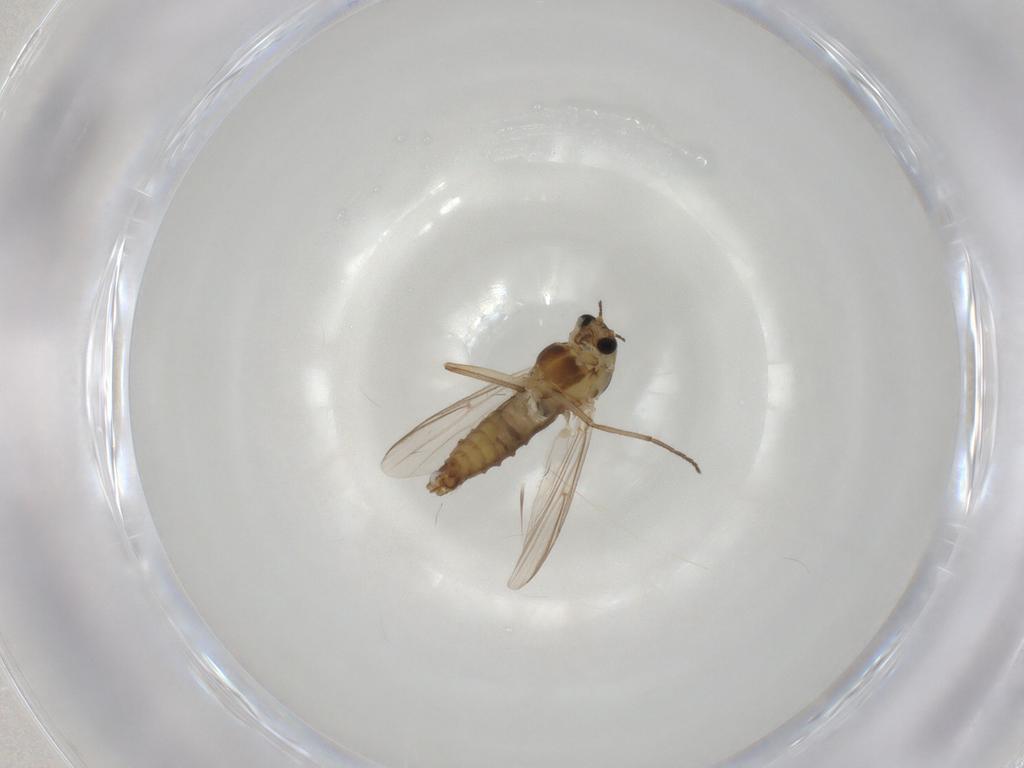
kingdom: Animalia
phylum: Arthropoda
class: Insecta
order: Diptera
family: Chironomidae
